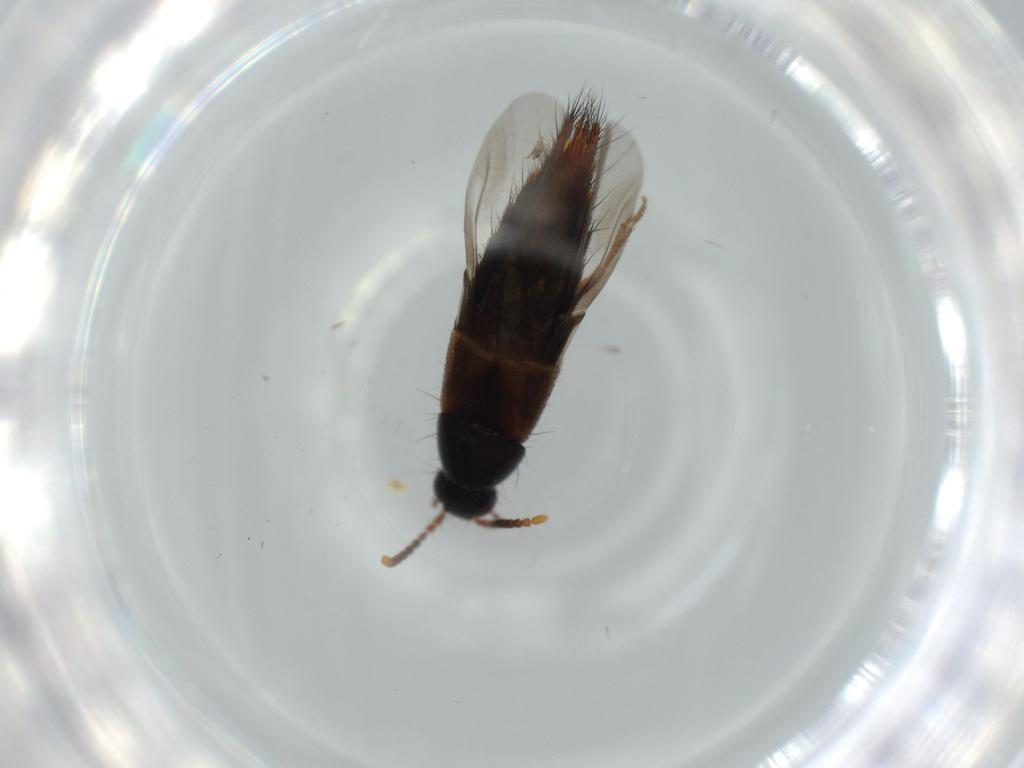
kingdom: Animalia
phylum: Arthropoda
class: Insecta
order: Coleoptera
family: Staphylinidae
